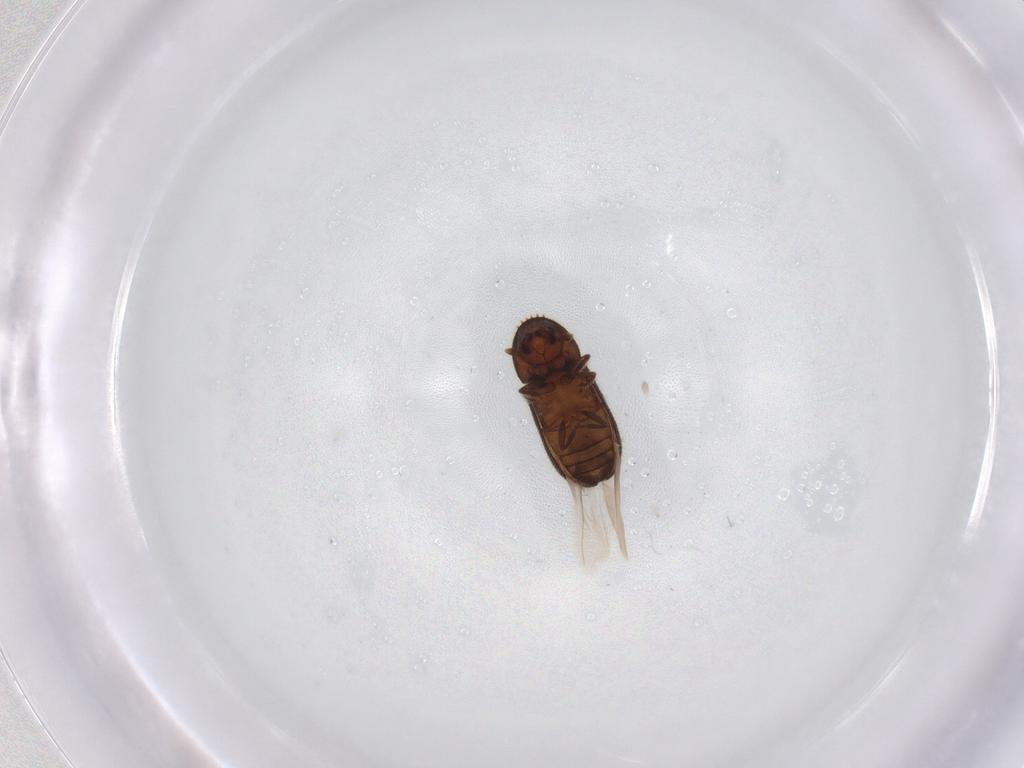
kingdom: Animalia
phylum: Arthropoda
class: Insecta
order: Coleoptera
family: Curculionidae
